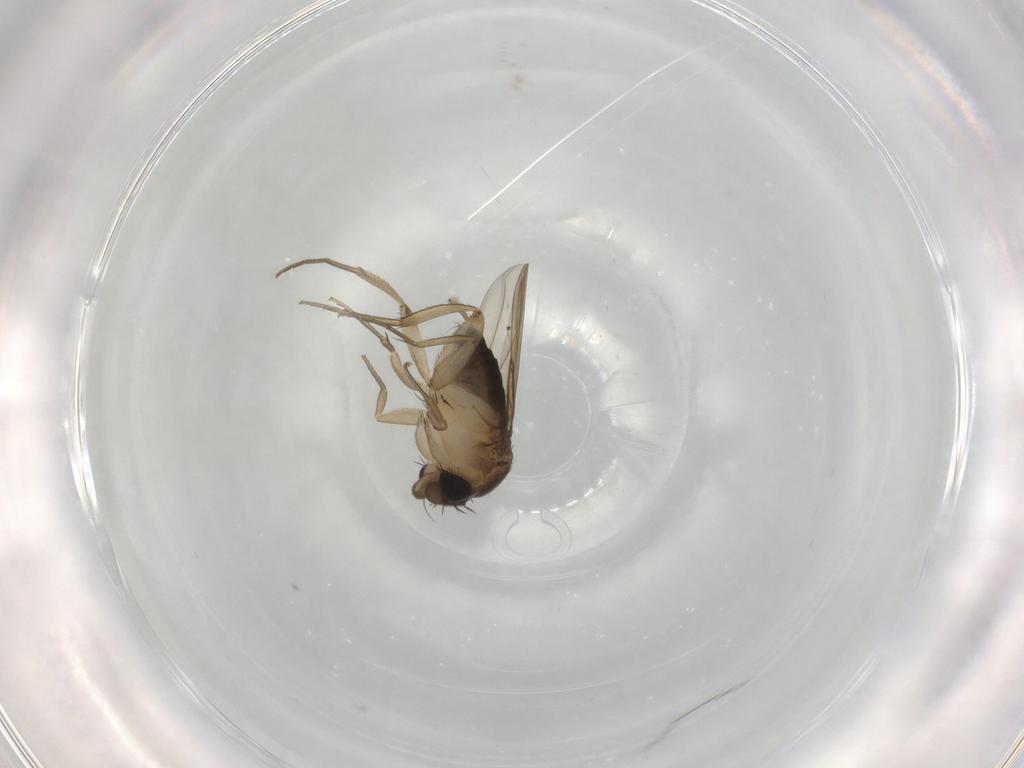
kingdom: Animalia
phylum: Arthropoda
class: Insecta
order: Diptera
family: Phoridae
